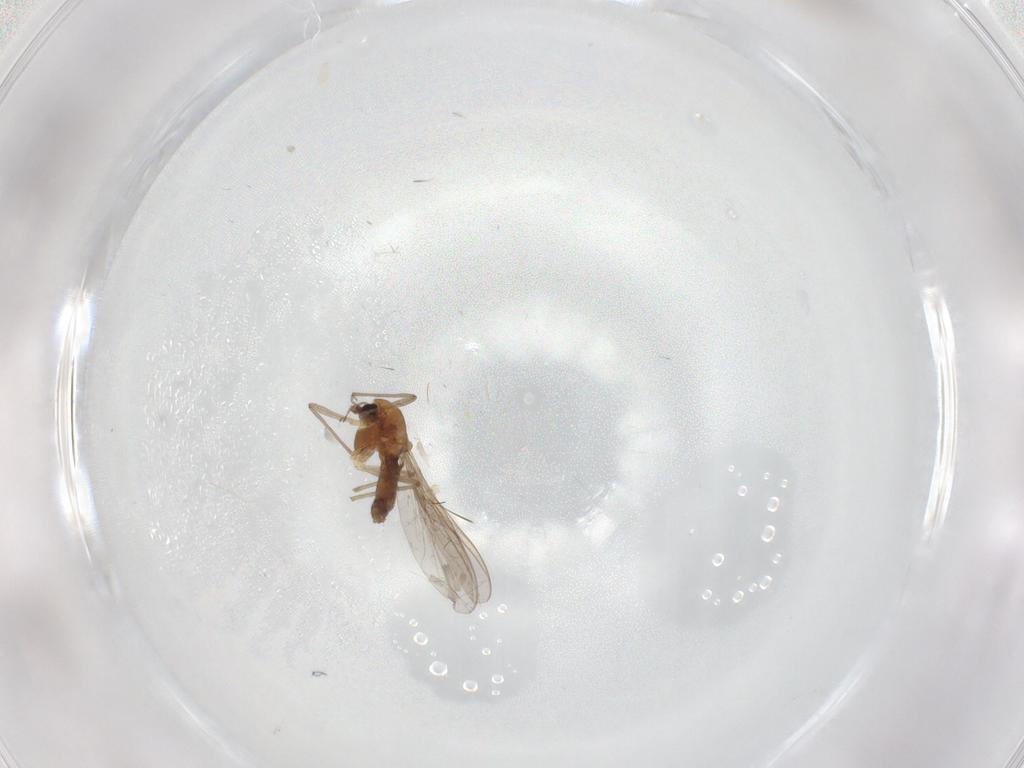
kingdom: Animalia
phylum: Arthropoda
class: Insecta
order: Diptera
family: Chironomidae
